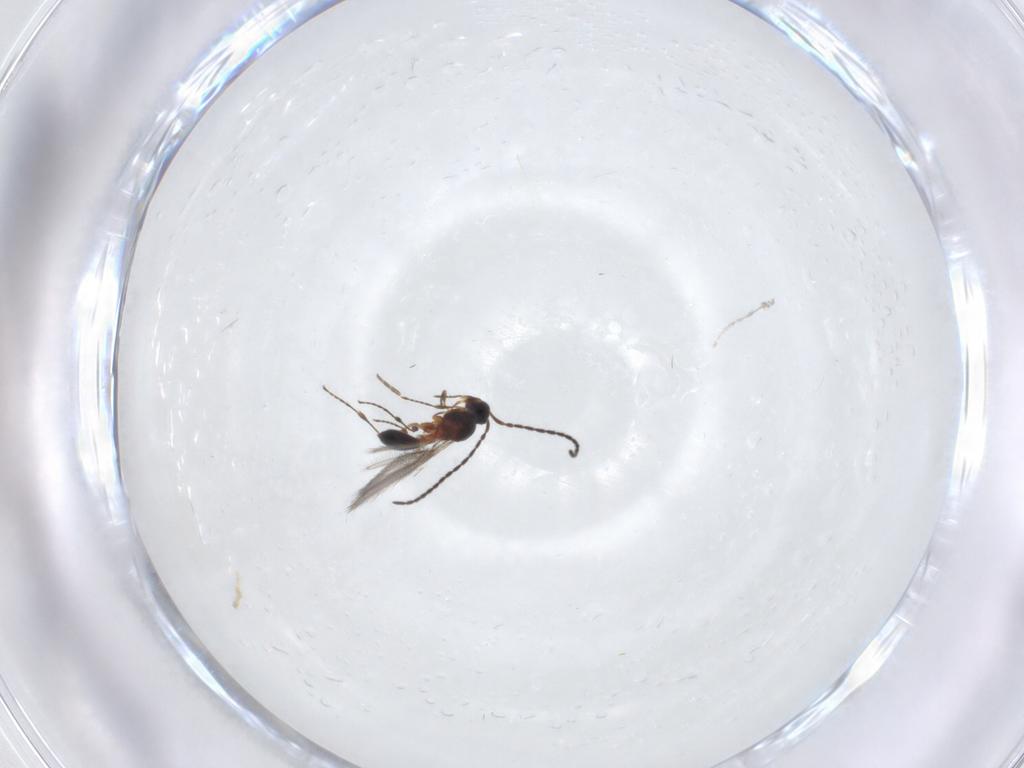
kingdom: Animalia
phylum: Arthropoda
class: Insecta
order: Hymenoptera
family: Diapriidae
